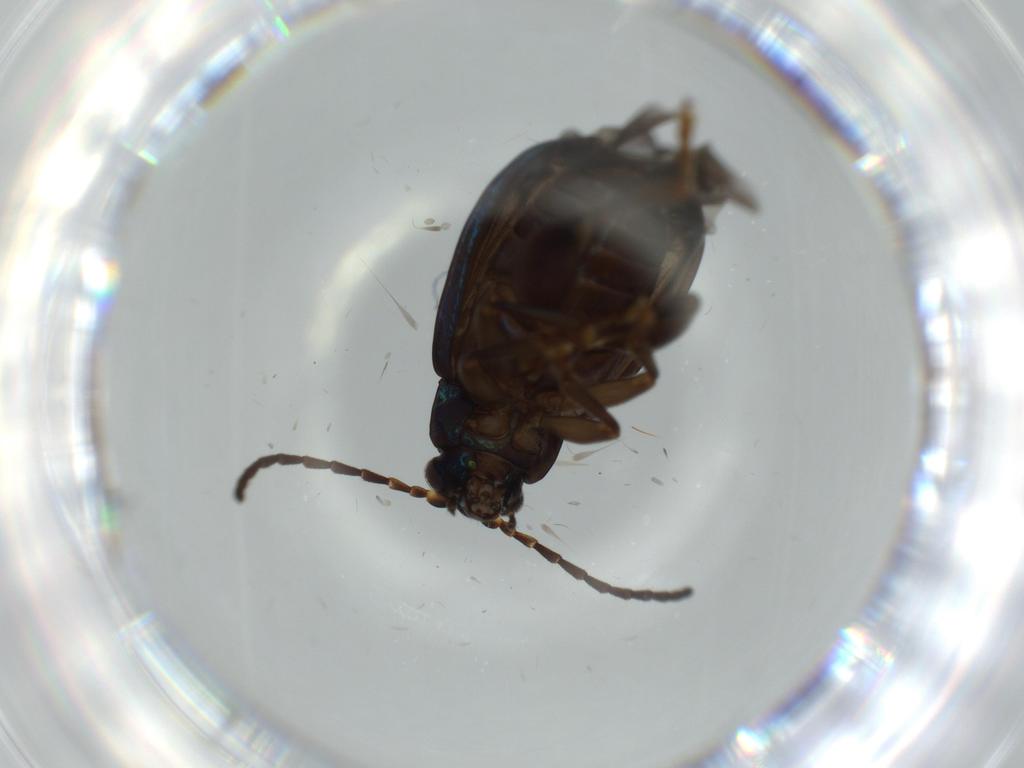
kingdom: Animalia
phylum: Arthropoda
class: Insecta
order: Coleoptera
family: Chrysomelidae
